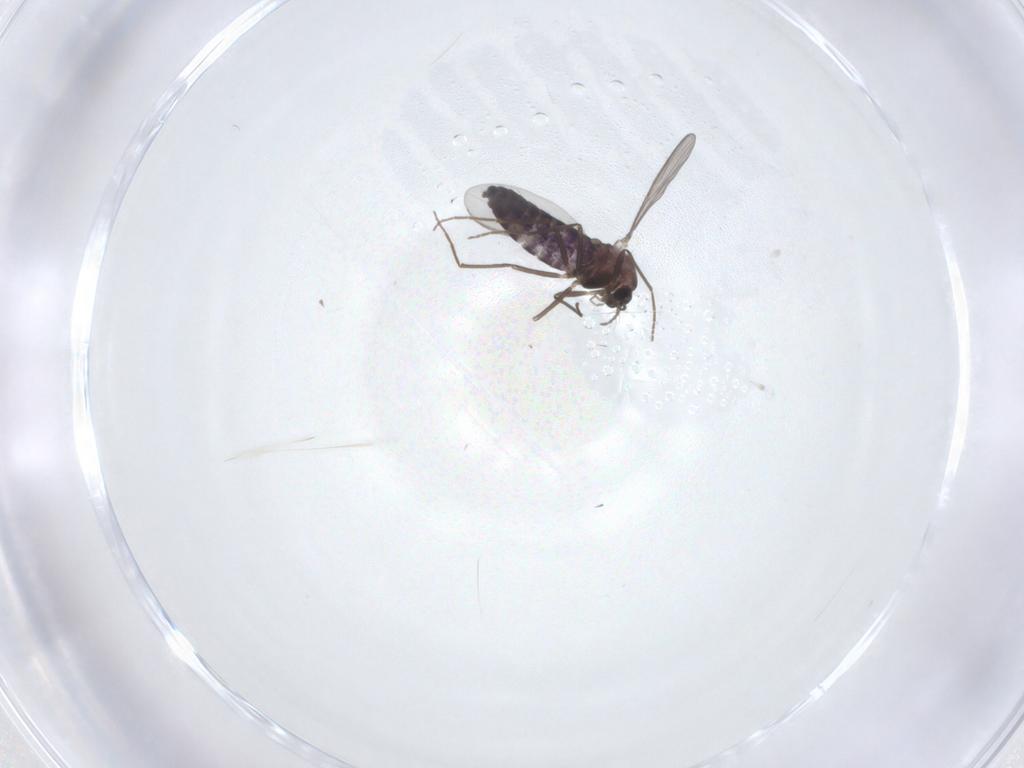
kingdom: Animalia
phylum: Arthropoda
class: Insecta
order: Diptera
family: Chironomidae
